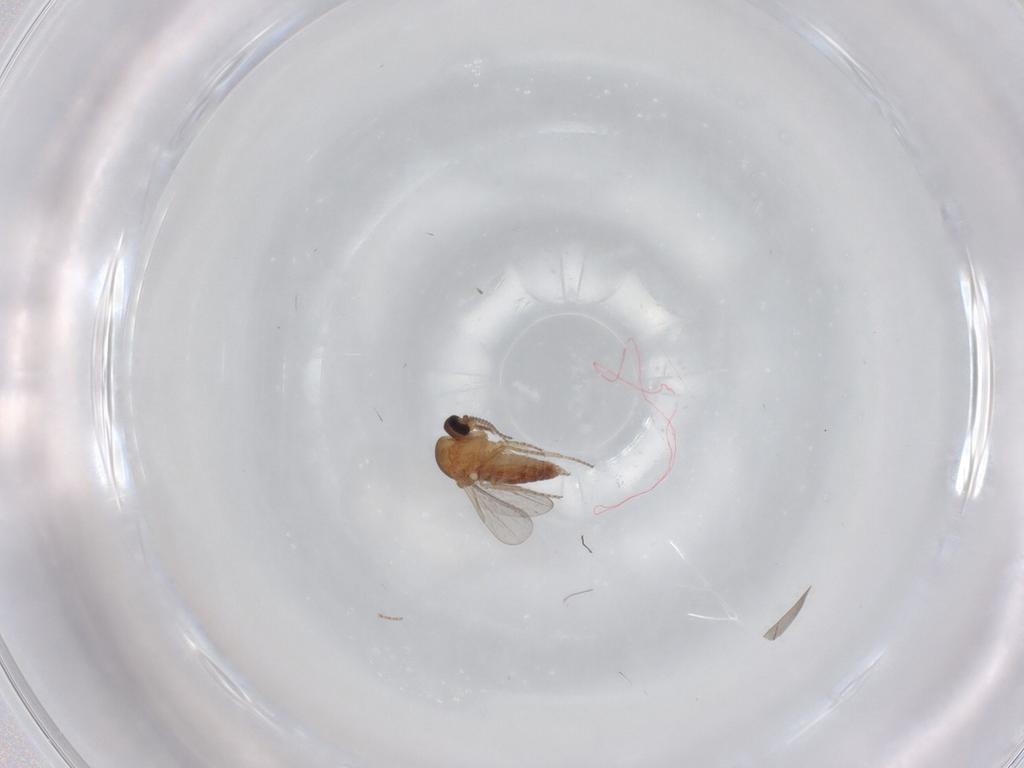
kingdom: Animalia
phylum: Arthropoda
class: Insecta
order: Diptera
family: Ceratopogonidae
